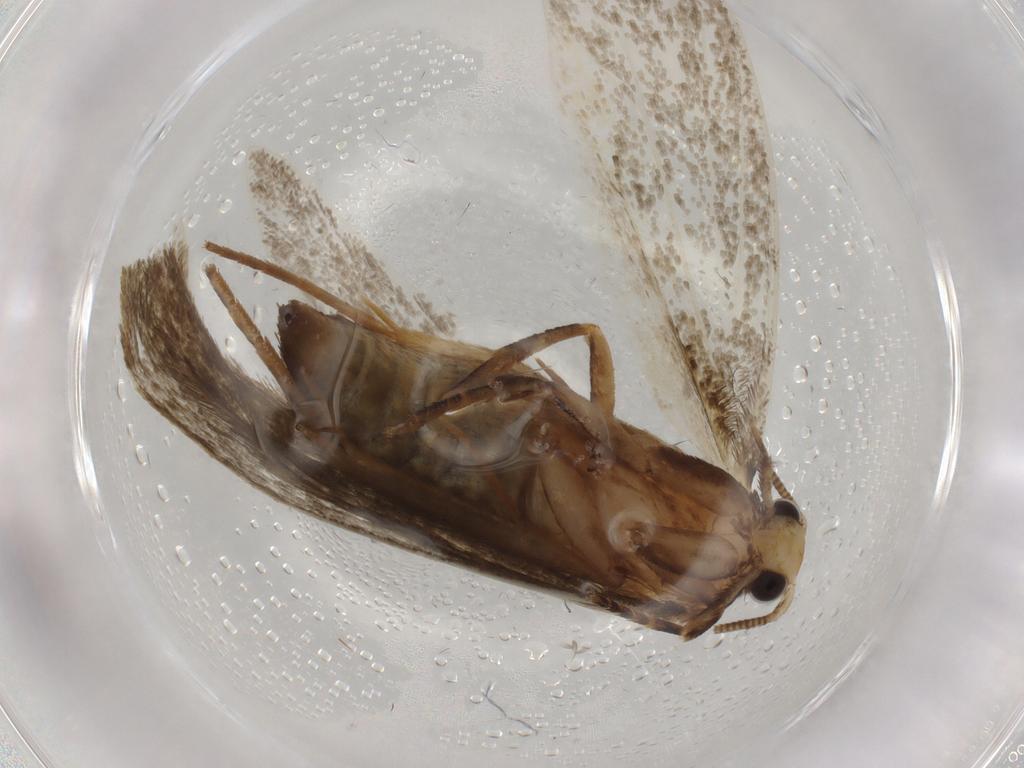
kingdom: Animalia
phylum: Arthropoda
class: Insecta
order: Lepidoptera
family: Tineidae
